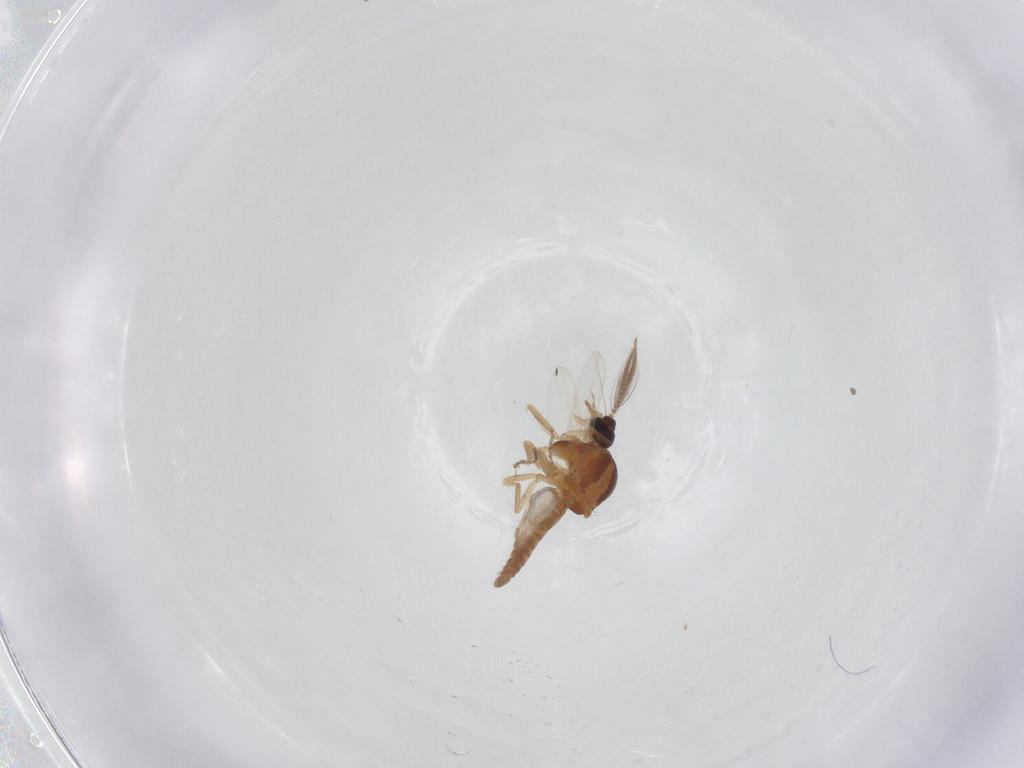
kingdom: Animalia
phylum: Arthropoda
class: Insecta
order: Diptera
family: Ceratopogonidae
